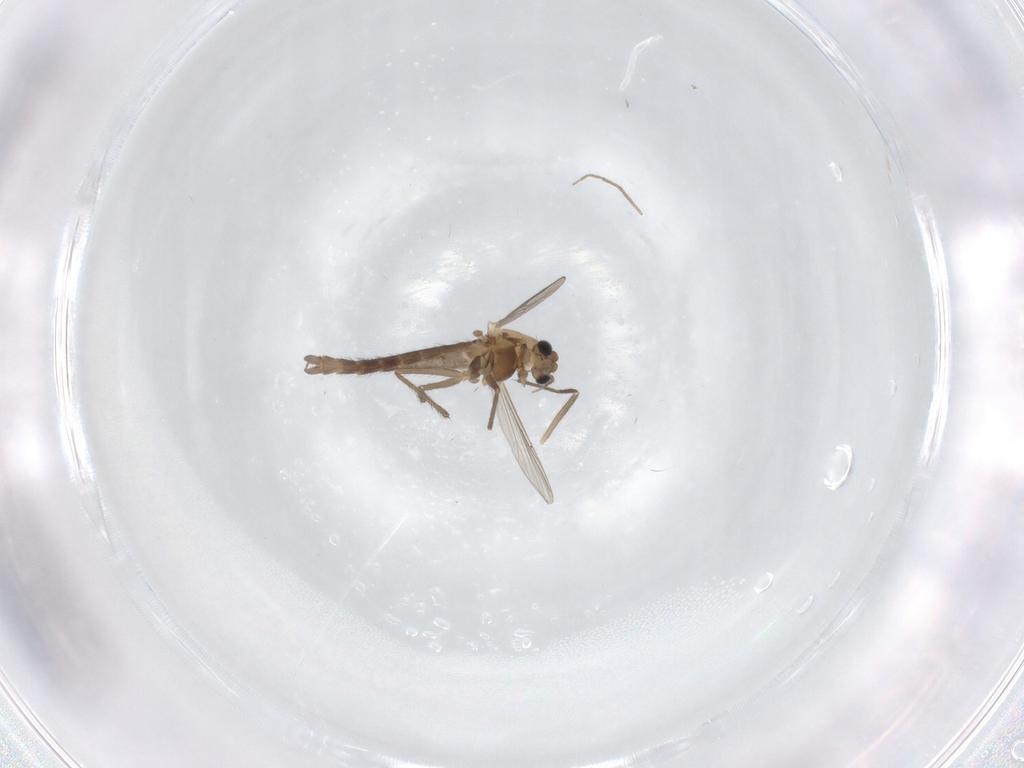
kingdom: Animalia
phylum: Arthropoda
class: Insecta
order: Diptera
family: Chironomidae
